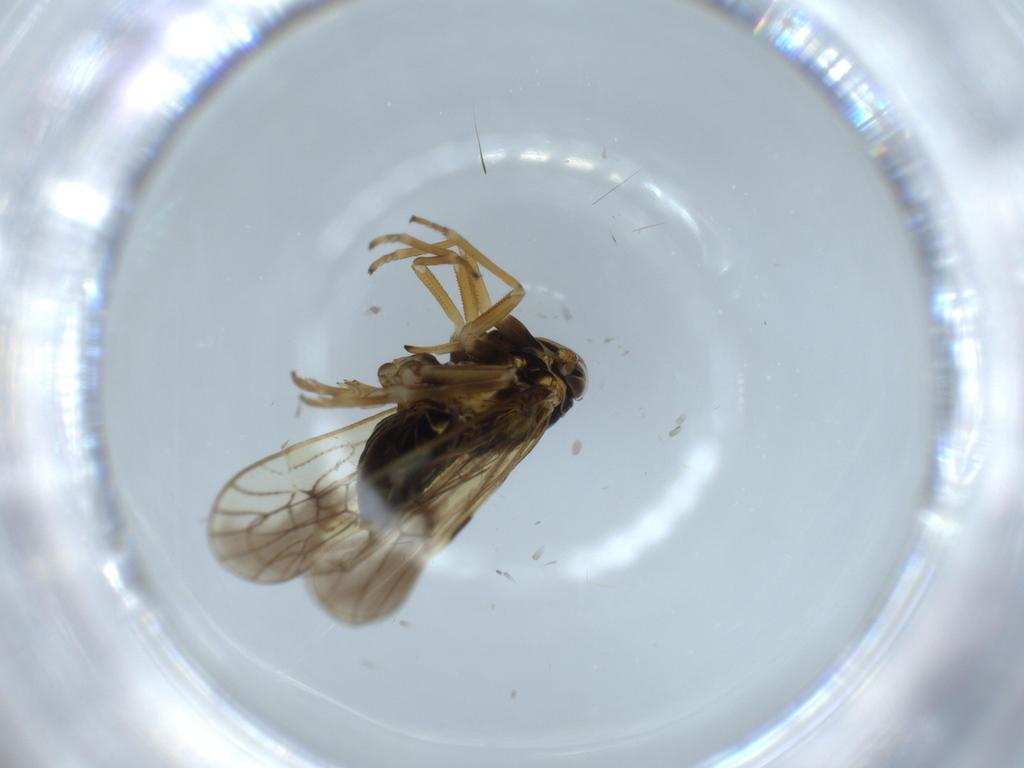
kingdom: Animalia
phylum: Arthropoda
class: Insecta
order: Hemiptera
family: Delphacidae
